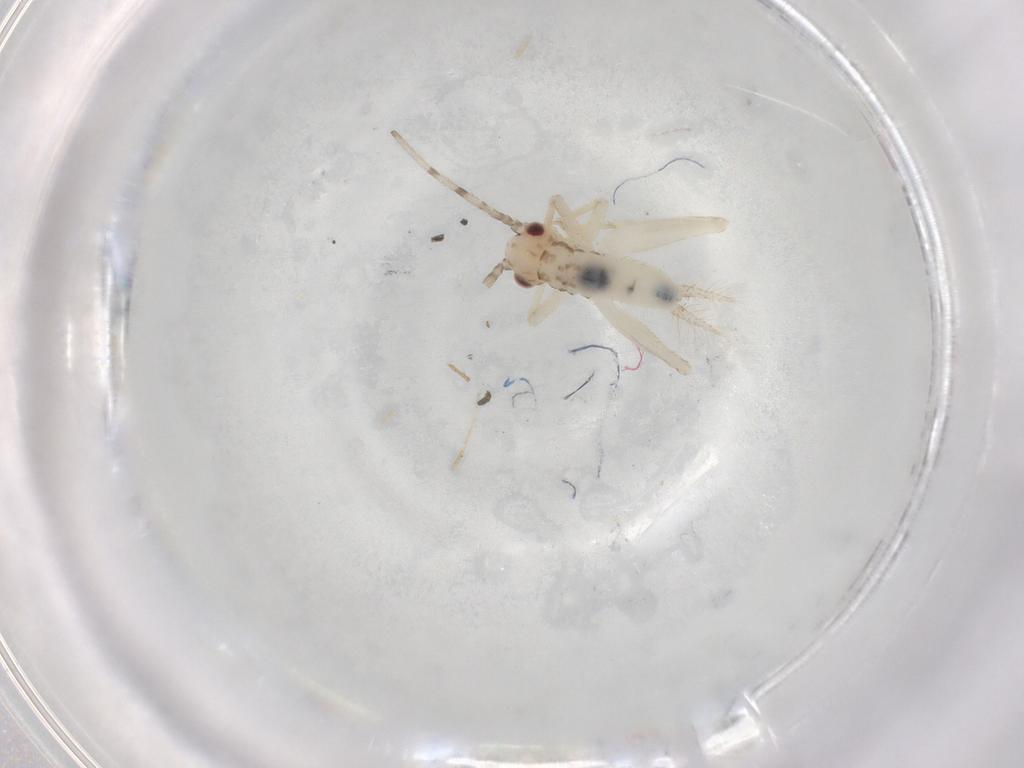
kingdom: Animalia
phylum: Arthropoda
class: Insecta
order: Orthoptera
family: Trigonidiidae
